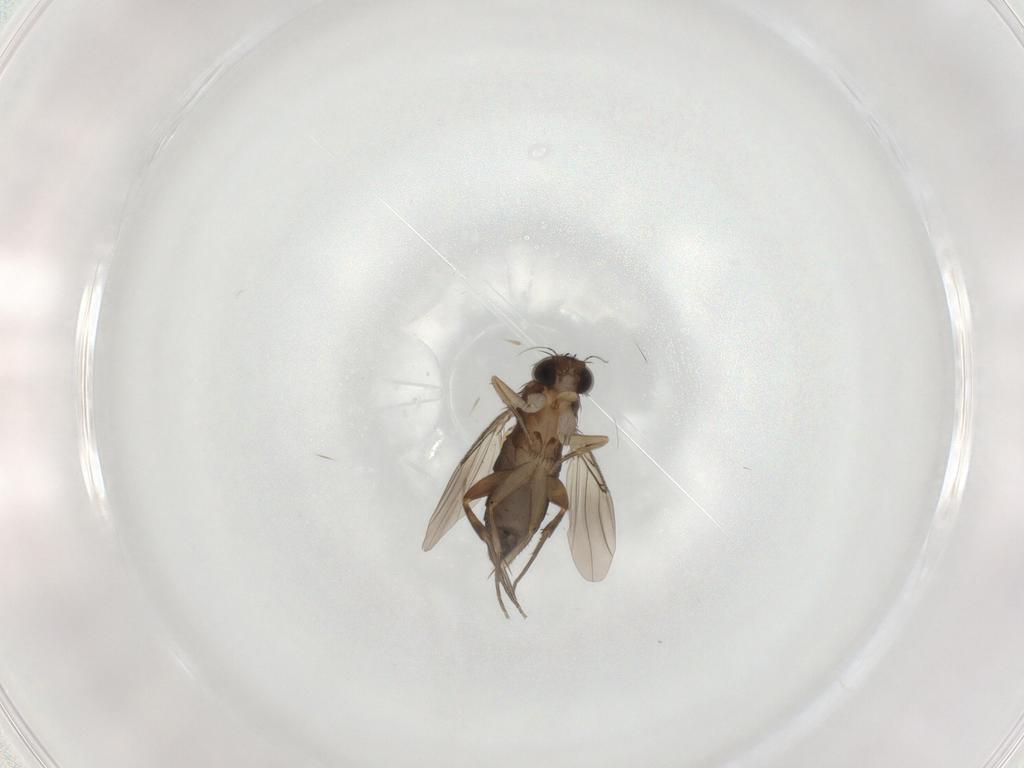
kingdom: Animalia
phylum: Arthropoda
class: Insecta
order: Diptera
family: Phoridae
